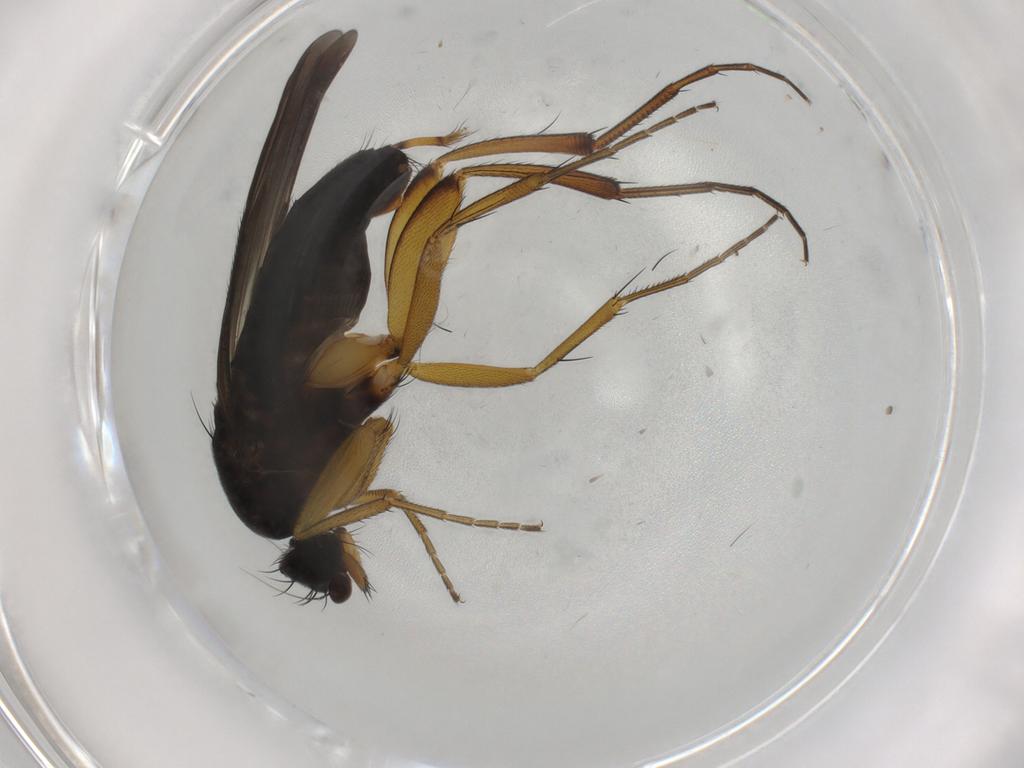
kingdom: Animalia
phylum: Arthropoda
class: Insecta
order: Diptera
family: Phoridae
